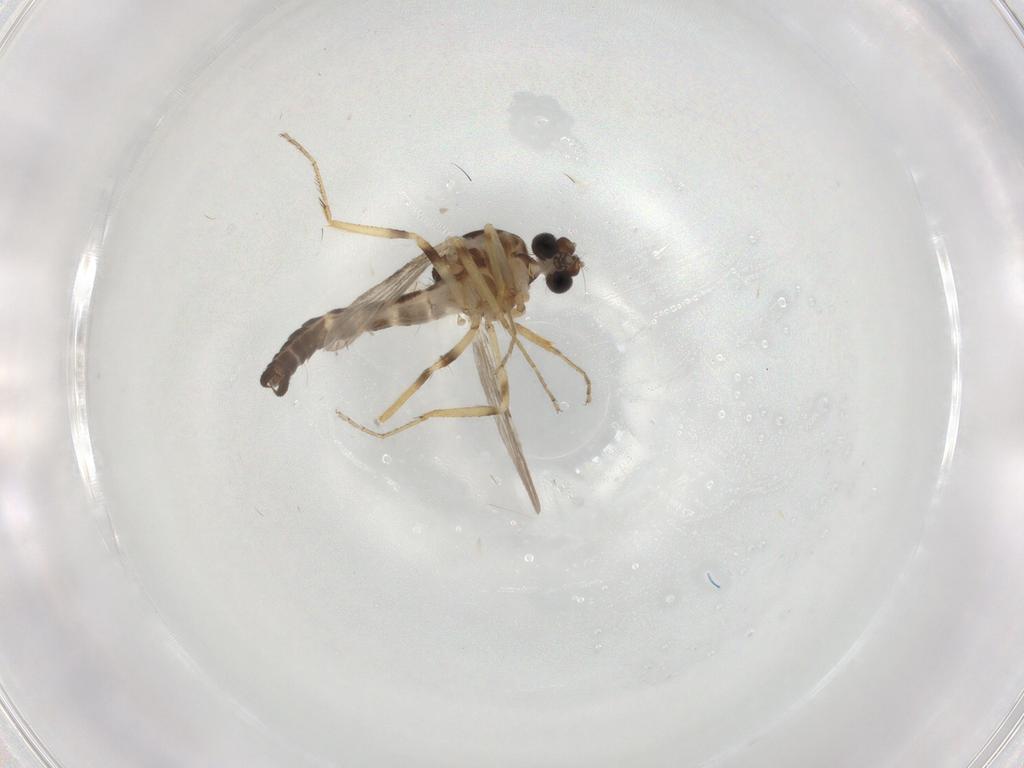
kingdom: Animalia
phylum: Arthropoda
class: Insecta
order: Diptera
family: Ceratopogonidae
